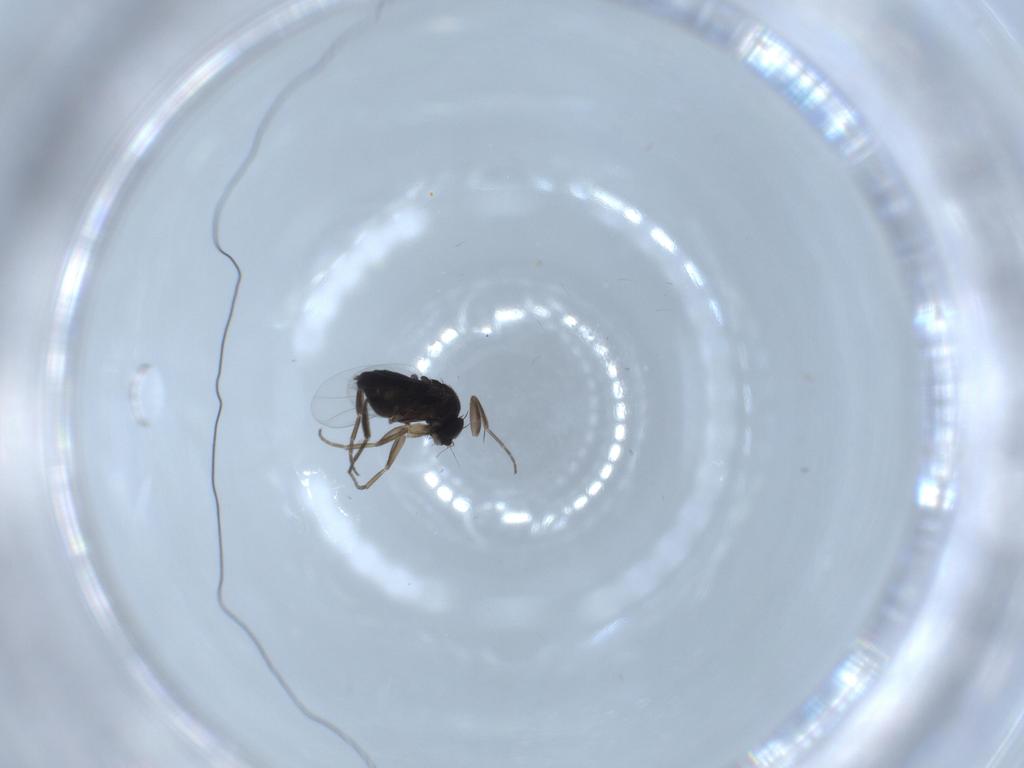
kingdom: Animalia
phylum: Arthropoda
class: Insecta
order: Diptera
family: Phoridae
